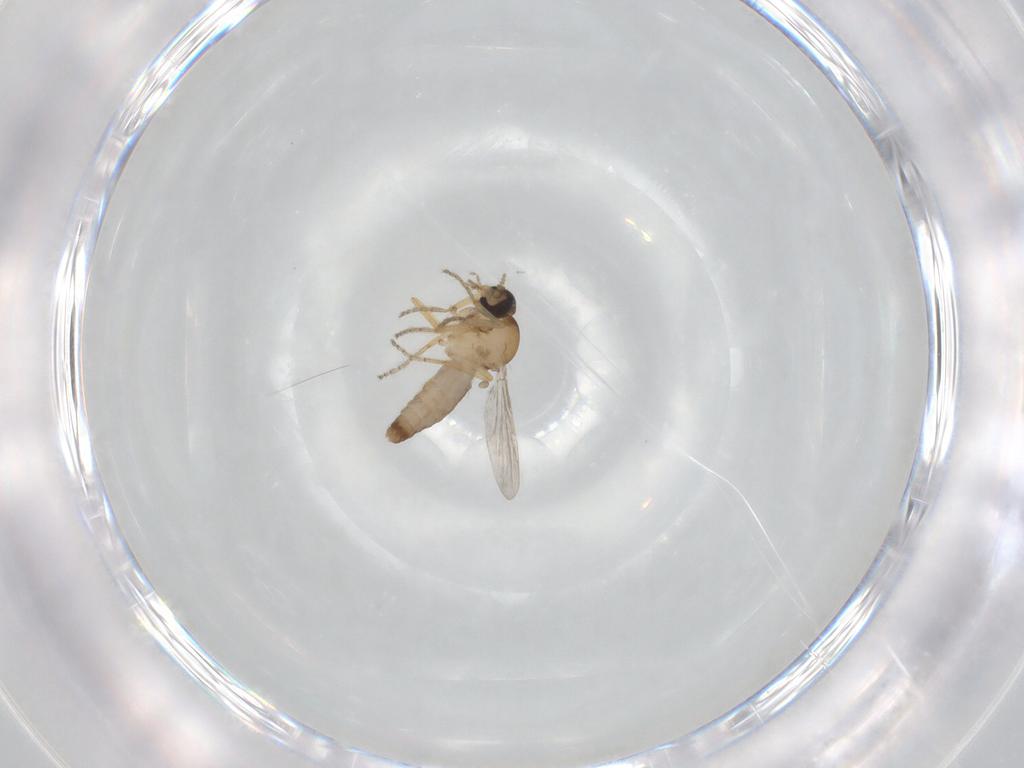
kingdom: Animalia
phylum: Arthropoda
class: Insecta
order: Diptera
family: Ceratopogonidae
